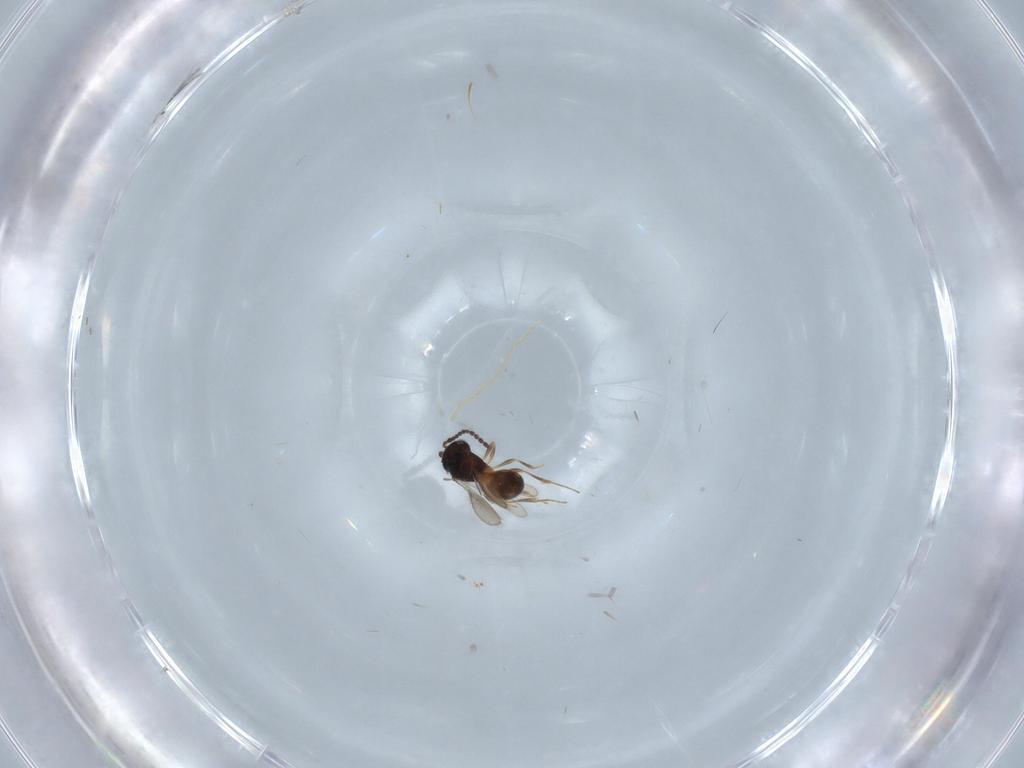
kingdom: Animalia
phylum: Arthropoda
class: Insecta
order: Hymenoptera
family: Scelionidae
